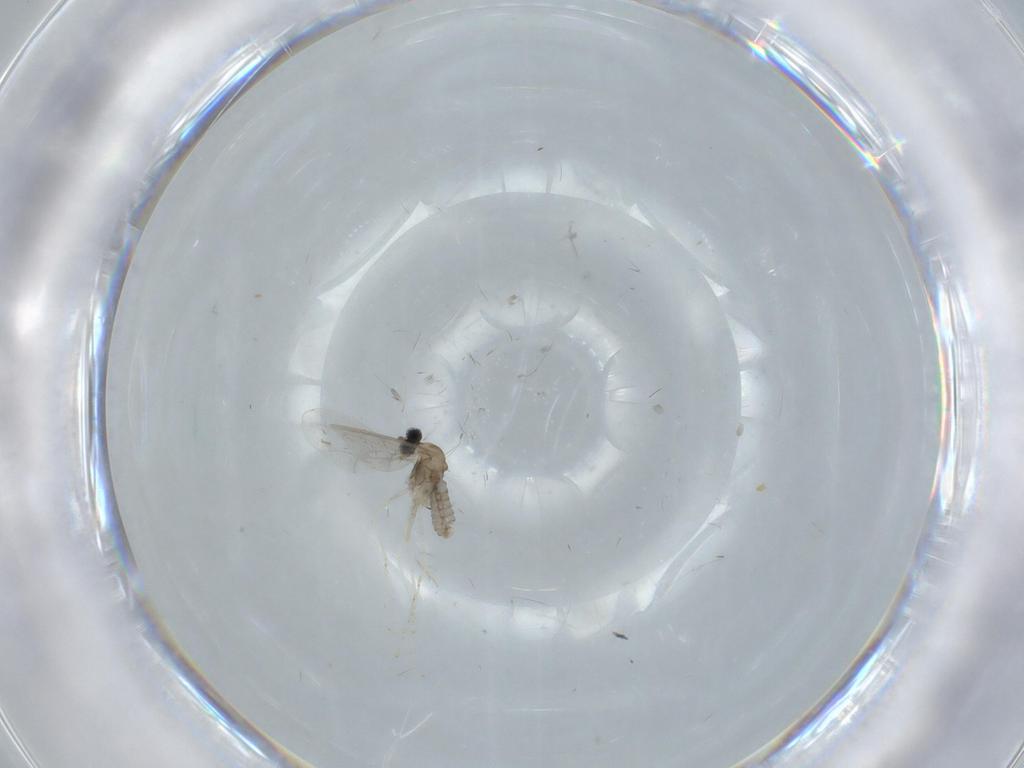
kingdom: Animalia
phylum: Arthropoda
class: Insecta
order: Diptera
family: Cecidomyiidae
